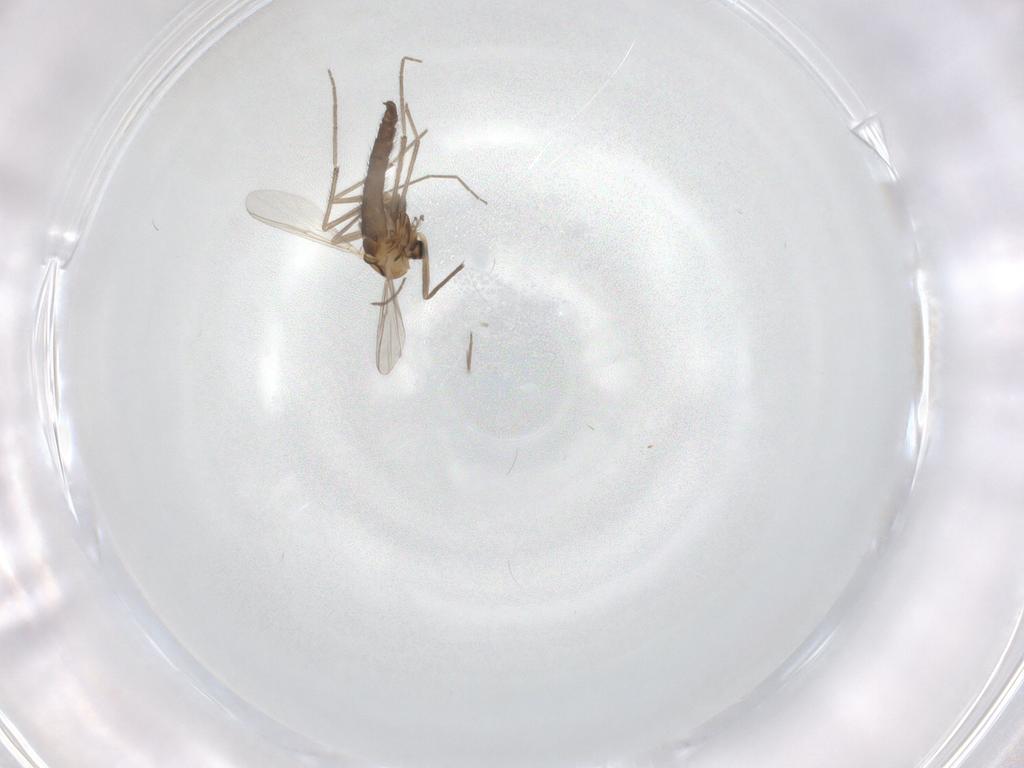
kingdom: Animalia
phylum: Arthropoda
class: Insecta
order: Diptera
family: Chironomidae
